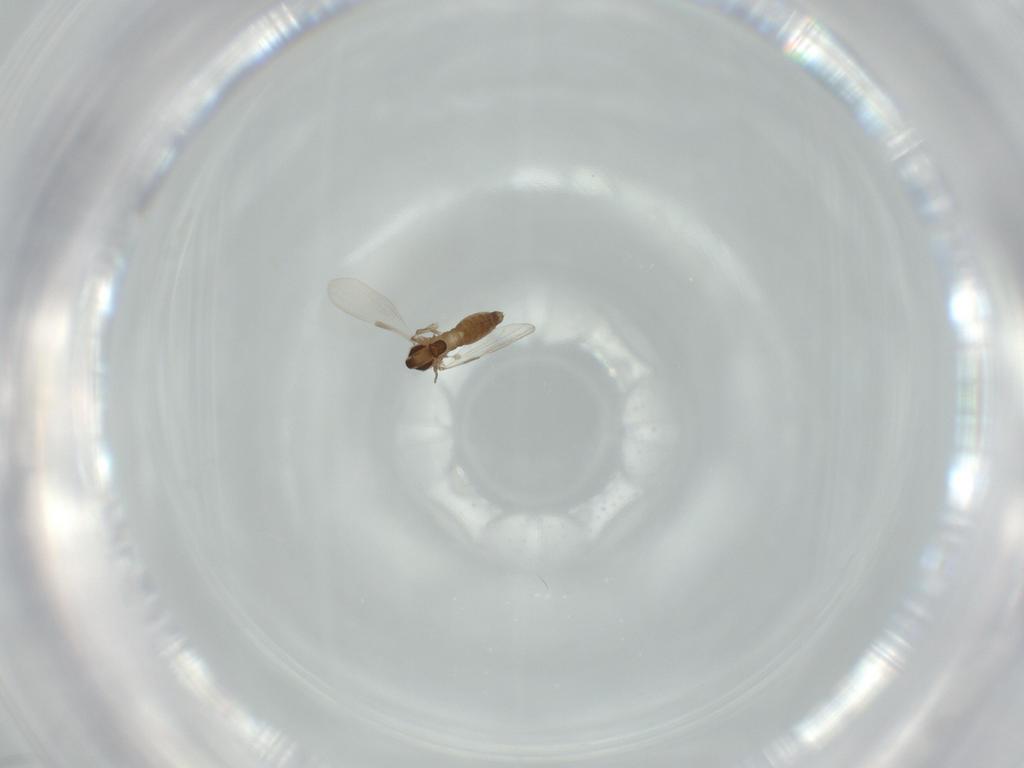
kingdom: Animalia
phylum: Arthropoda
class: Insecta
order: Diptera
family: Chironomidae
